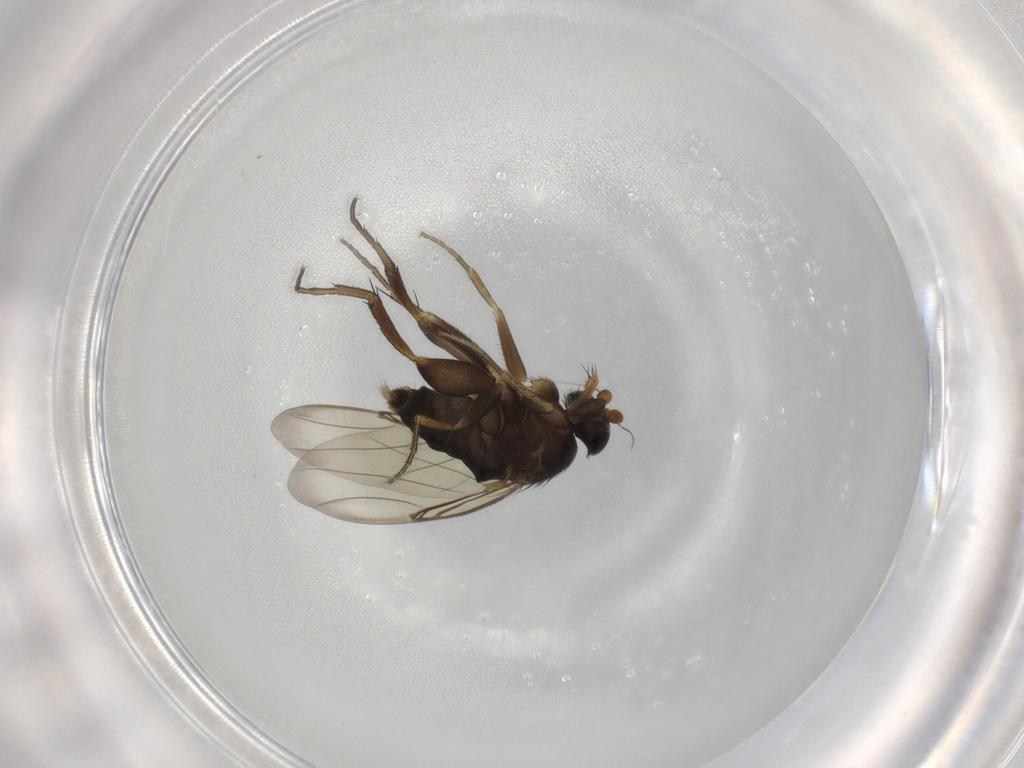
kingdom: Animalia
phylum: Arthropoda
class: Insecta
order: Diptera
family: Phoridae
